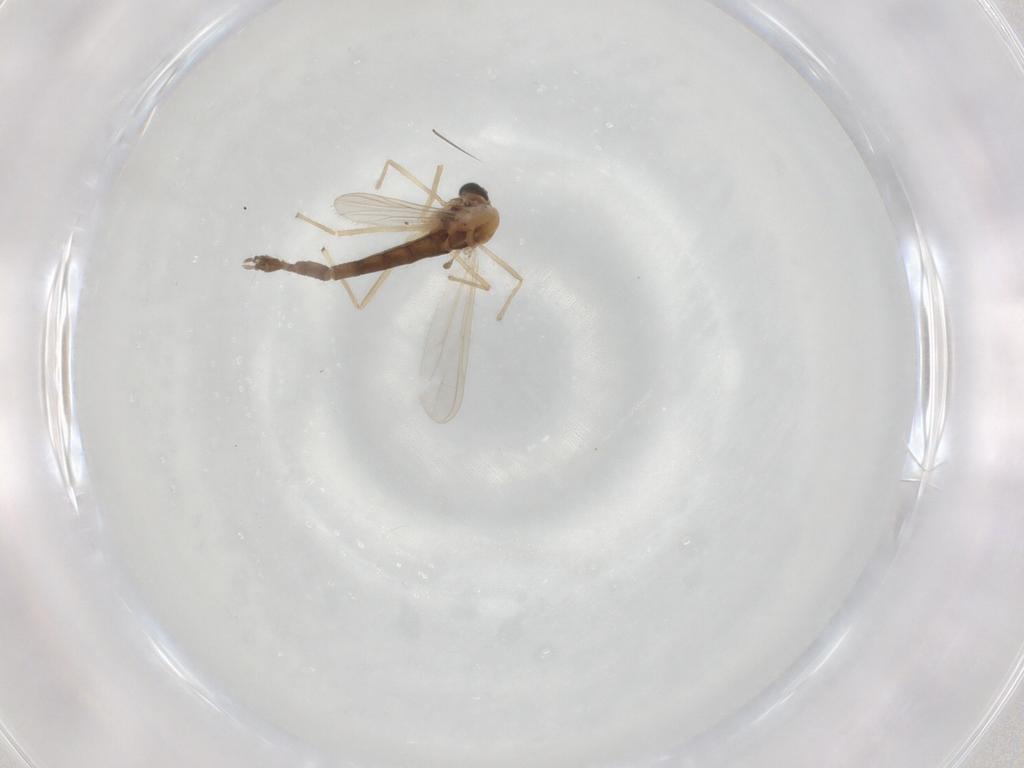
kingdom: Animalia
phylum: Arthropoda
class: Insecta
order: Diptera
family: Chironomidae
